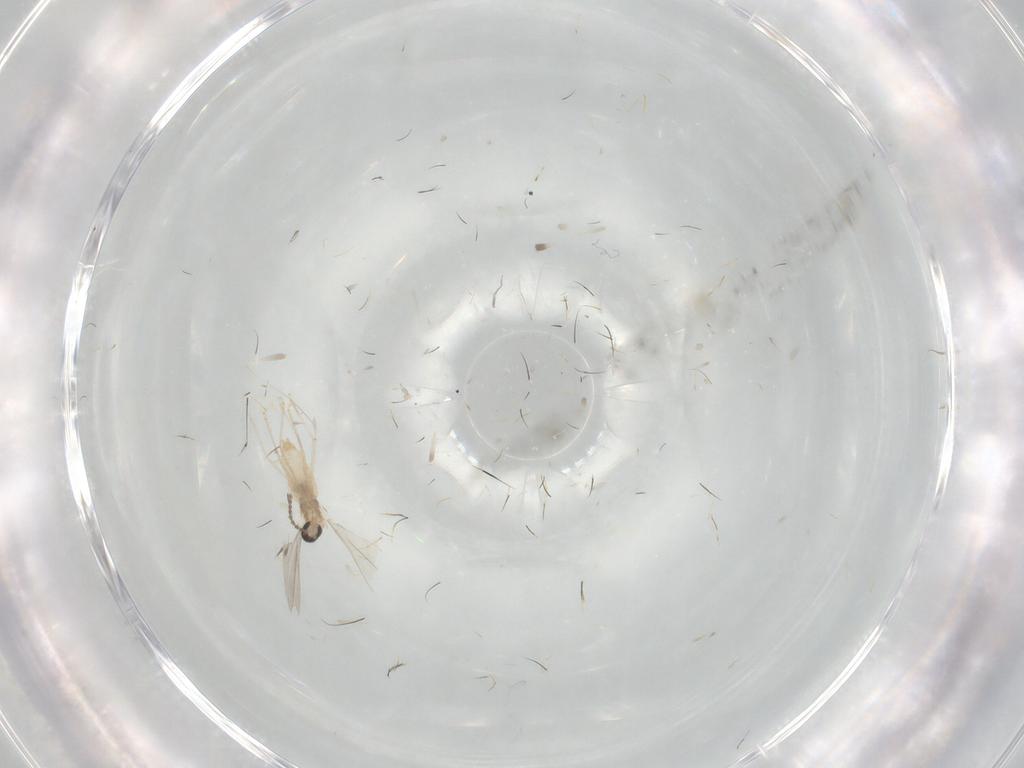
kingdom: Animalia
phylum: Arthropoda
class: Insecta
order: Diptera
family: Cecidomyiidae
